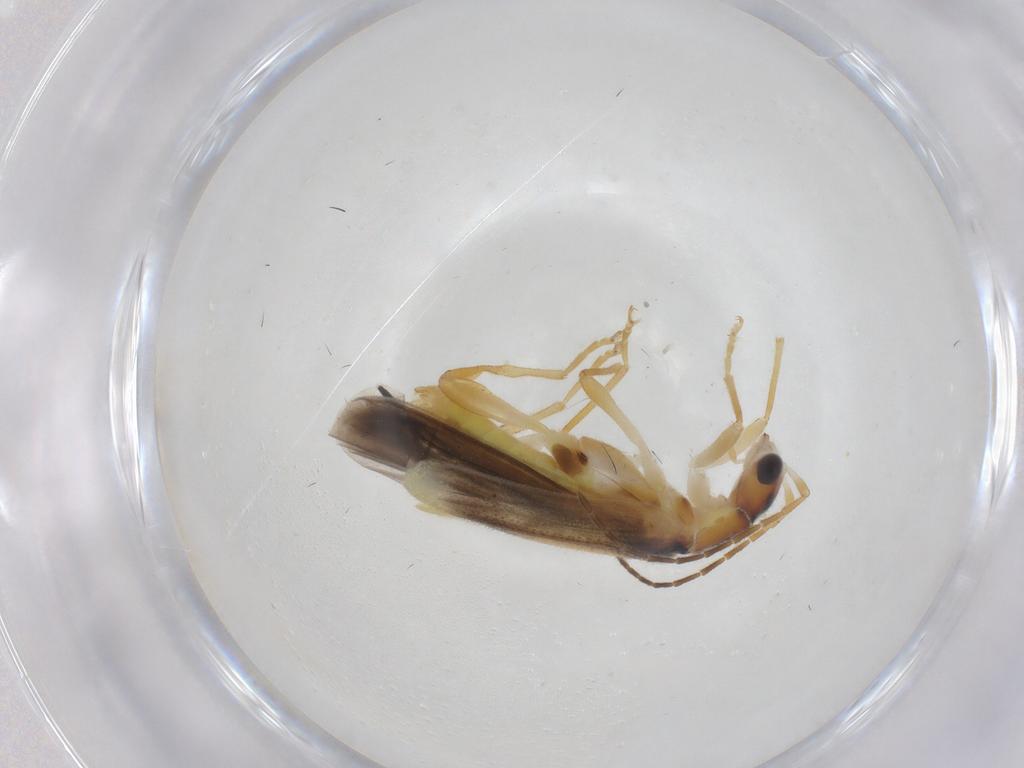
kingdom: Animalia
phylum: Arthropoda
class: Insecta
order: Coleoptera
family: Cantharidae
